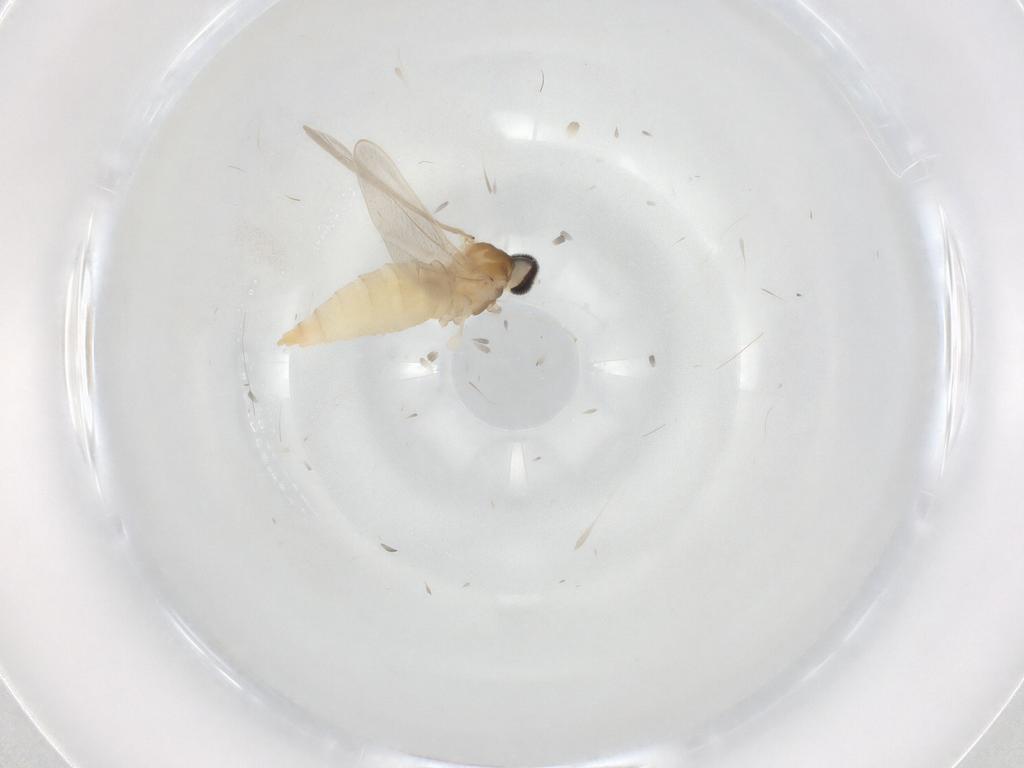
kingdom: Animalia
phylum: Arthropoda
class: Insecta
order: Diptera
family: Cecidomyiidae
